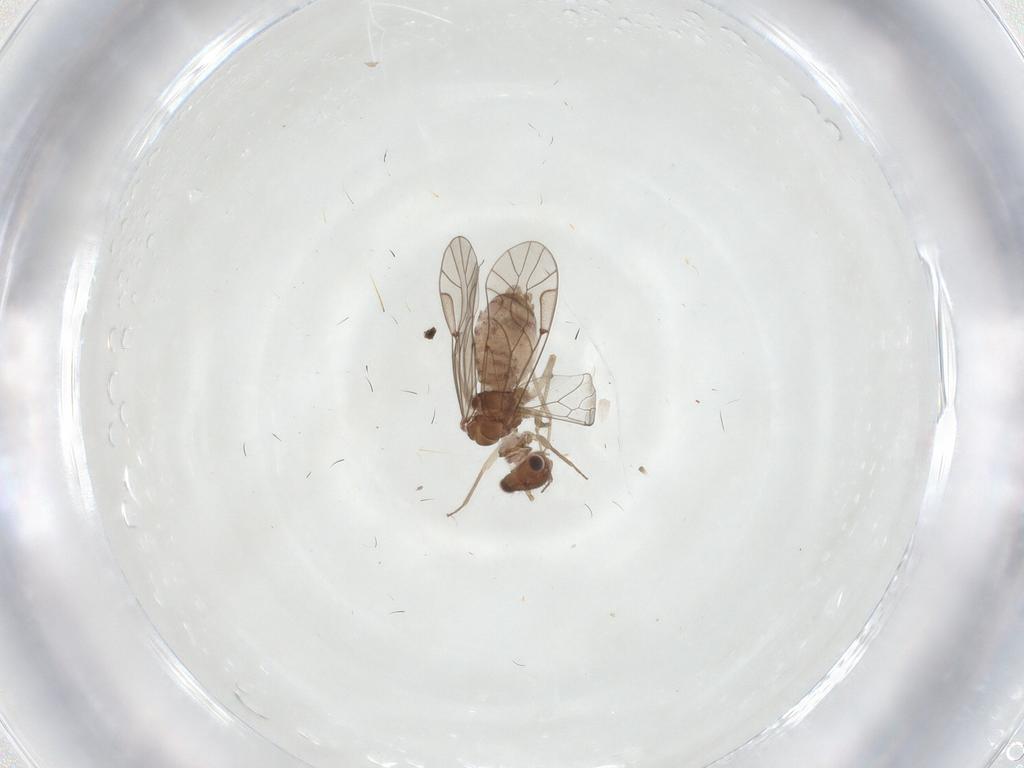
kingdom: Animalia
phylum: Arthropoda
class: Insecta
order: Psocodea
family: Lachesillidae
